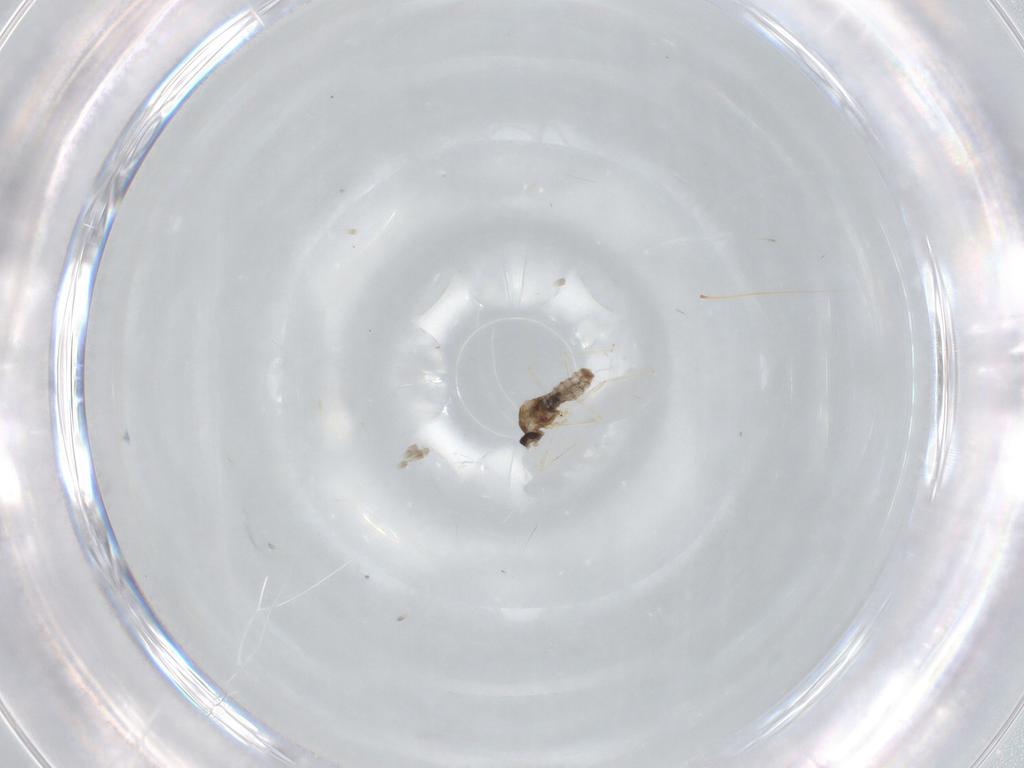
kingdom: Animalia
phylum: Arthropoda
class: Insecta
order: Diptera
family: Cecidomyiidae
